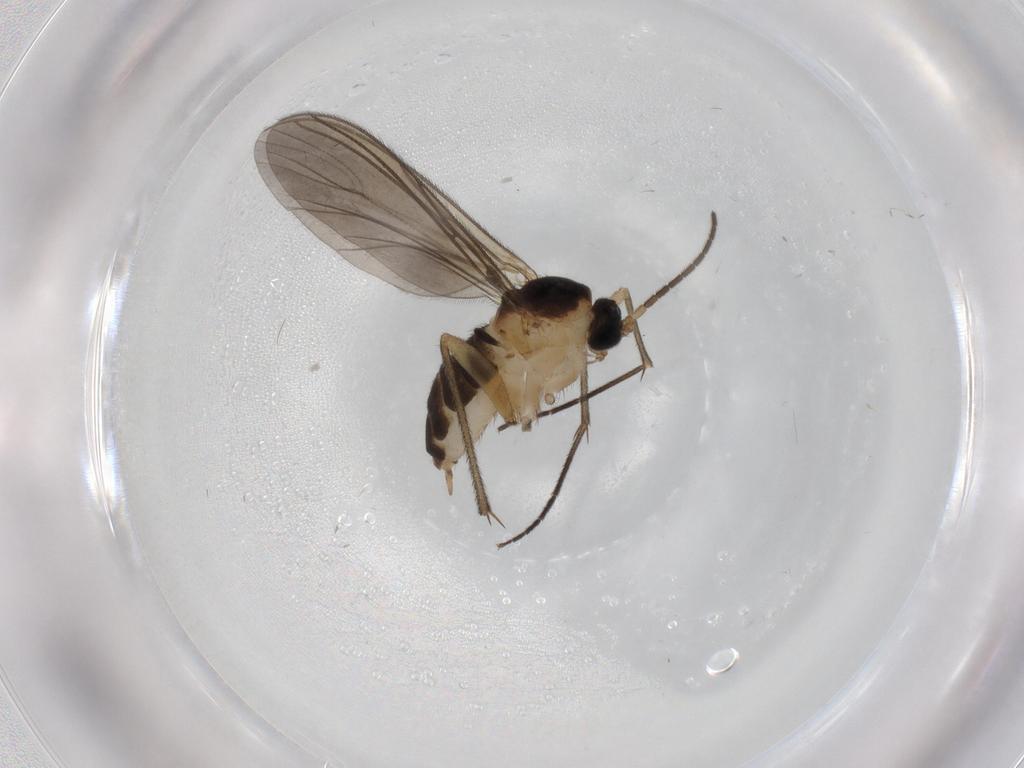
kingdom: Animalia
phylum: Arthropoda
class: Insecta
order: Diptera
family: Sciaridae
